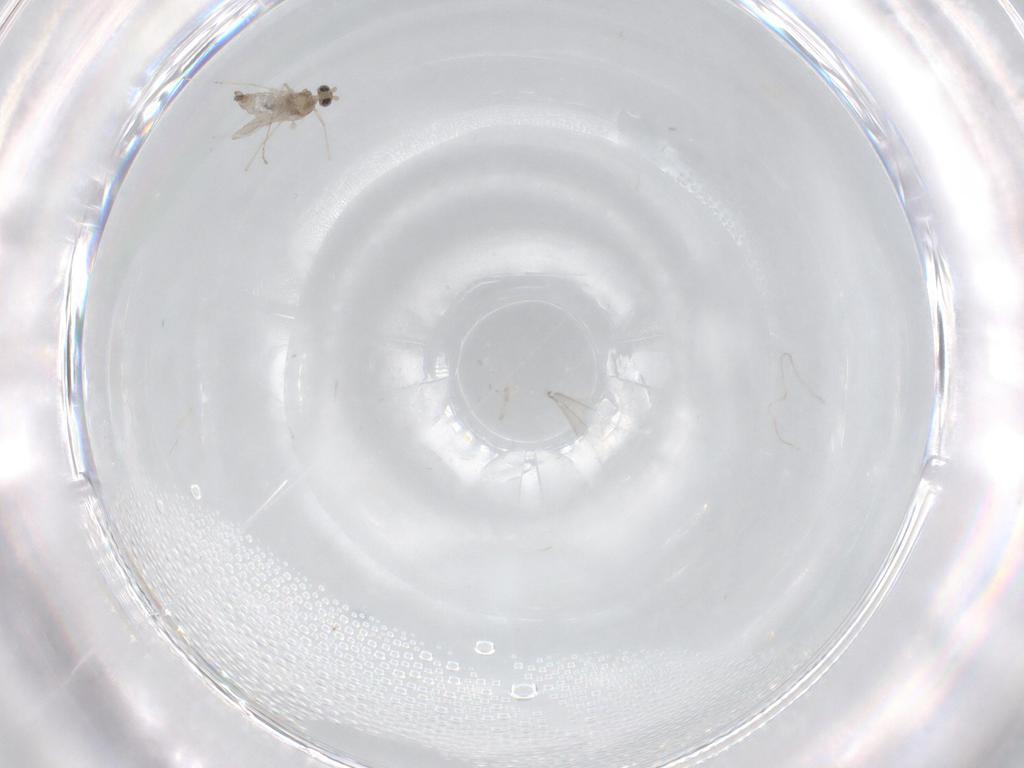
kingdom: Animalia
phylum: Arthropoda
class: Insecta
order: Diptera
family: Cecidomyiidae
